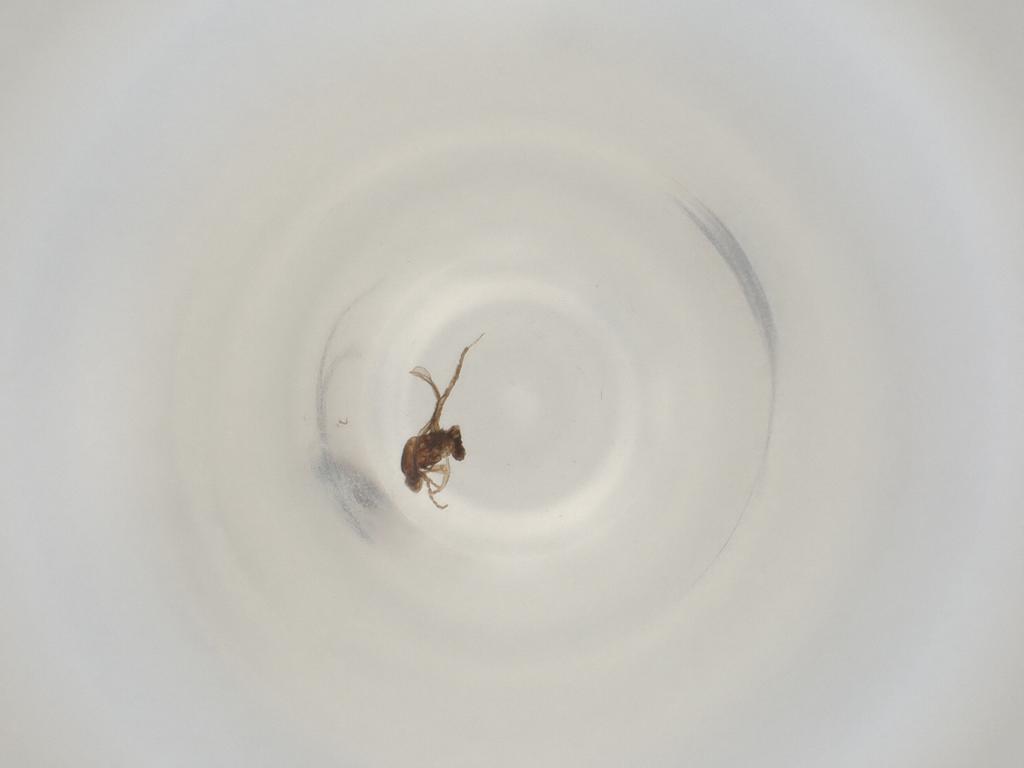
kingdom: Animalia
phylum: Arthropoda
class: Insecta
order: Diptera
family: Cecidomyiidae
